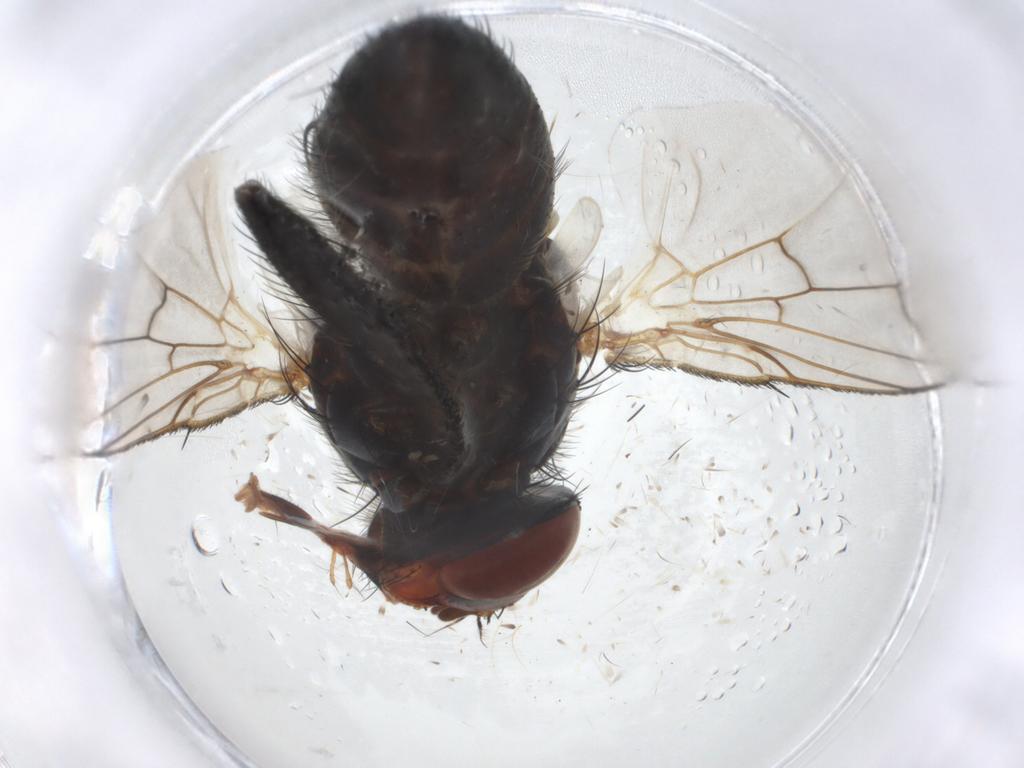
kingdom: Animalia
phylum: Arthropoda
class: Insecta
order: Diptera
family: Tachinidae
